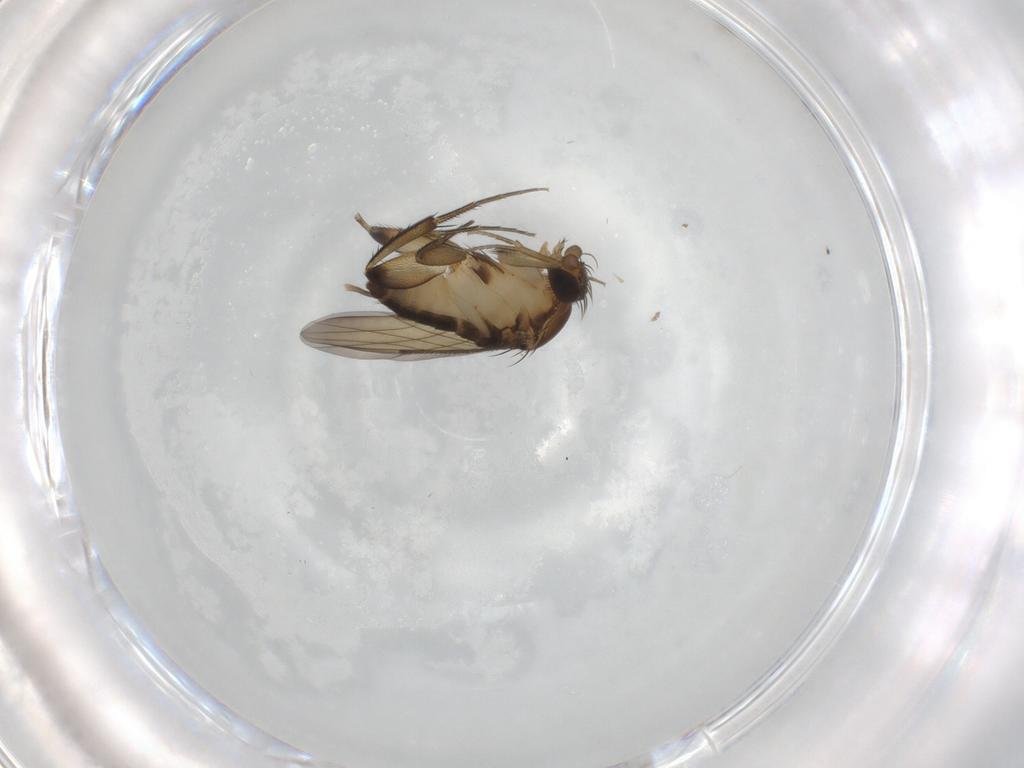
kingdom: Animalia
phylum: Arthropoda
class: Insecta
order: Diptera
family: Phoridae
